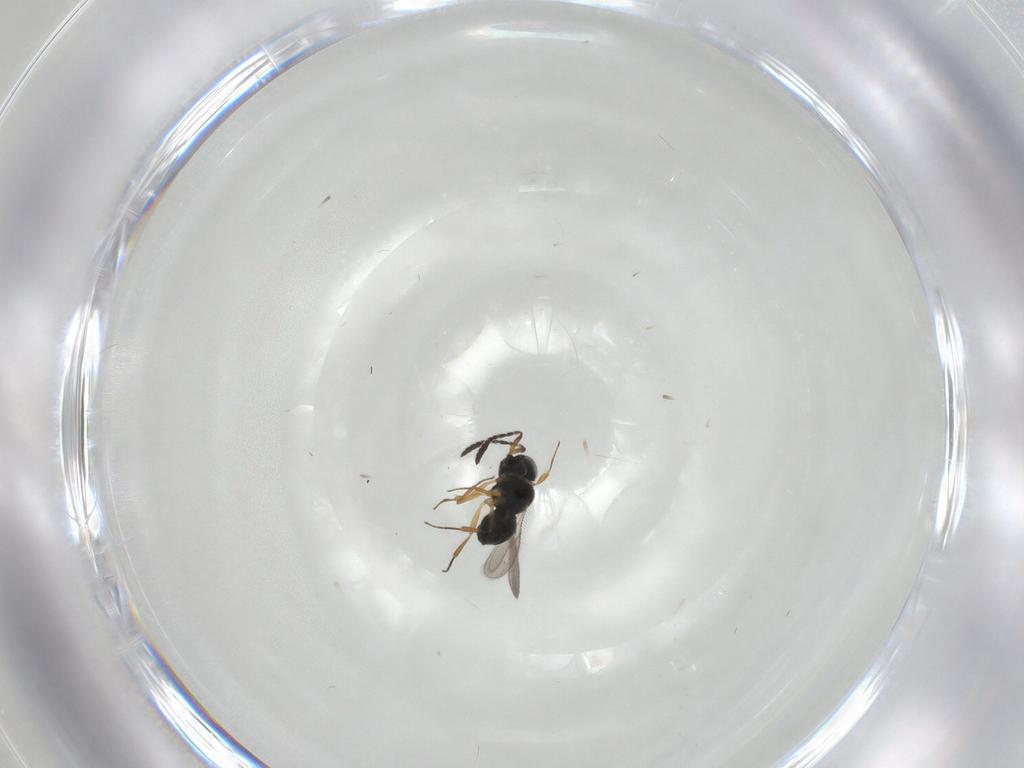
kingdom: Animalia
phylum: Arthropoda
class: Insecta
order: Hymenoptera
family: Scelionidae
